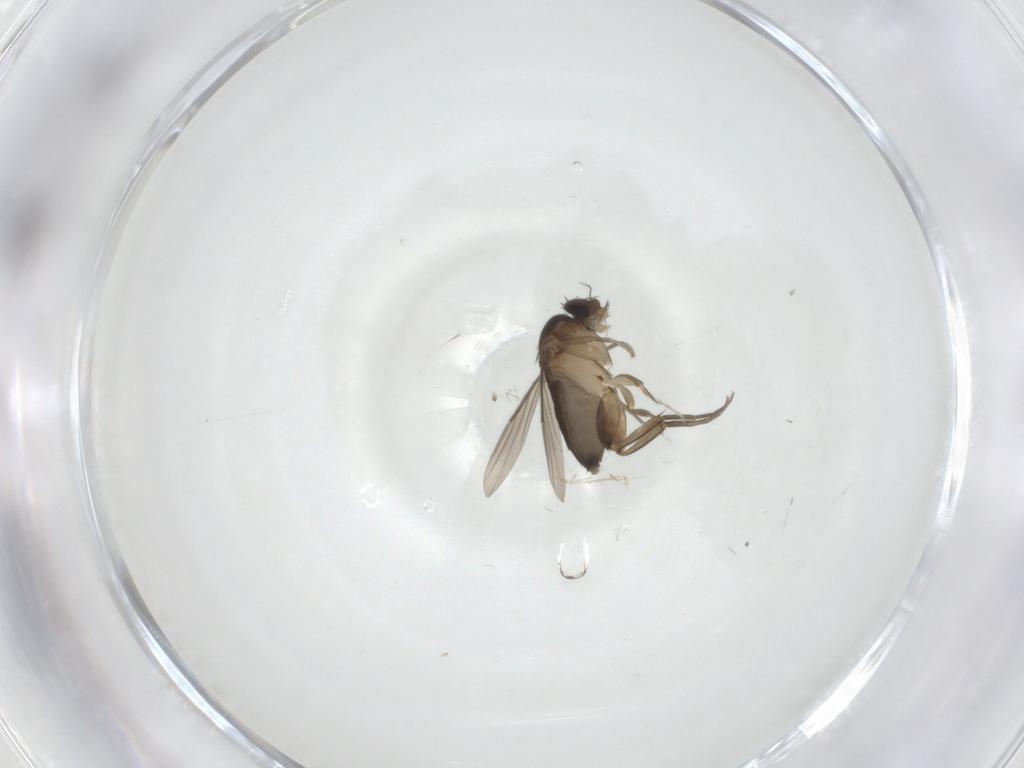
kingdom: Animalia
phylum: Arthropoda
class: Insecta
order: Diptera
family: Phoridae
